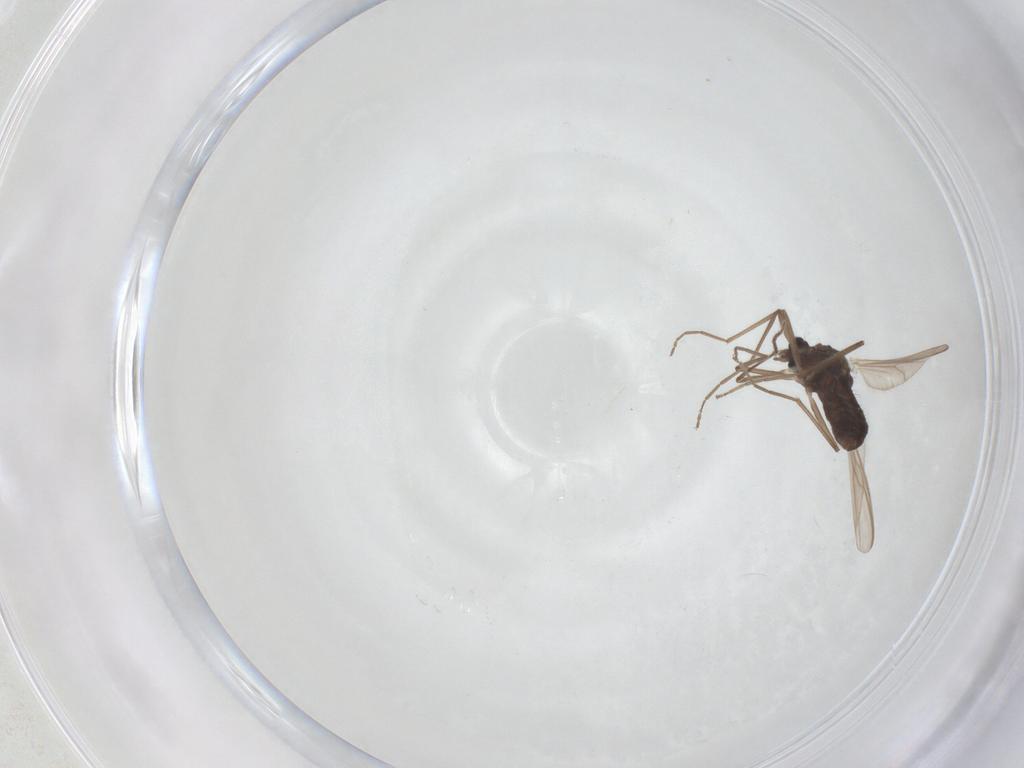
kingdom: Animalia
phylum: Arthropoda
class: Insecta
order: Diptera
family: Chironomidae
